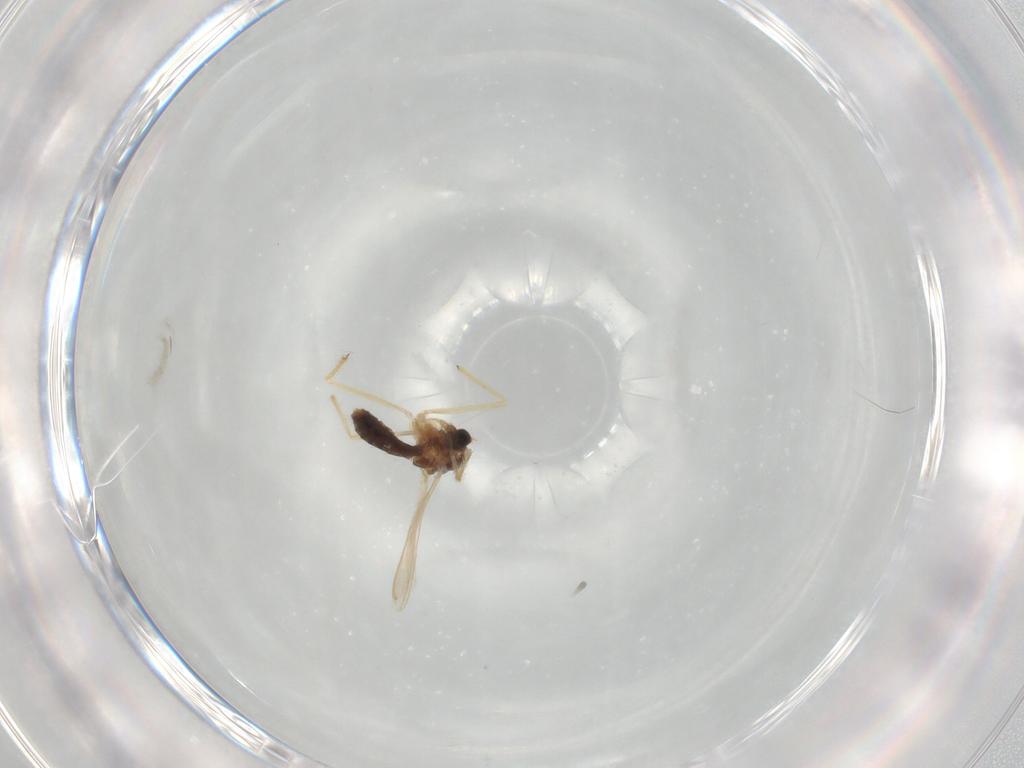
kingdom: Animalia
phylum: Arthropoda
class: Insecta
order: Diptera
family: Chironomidae
